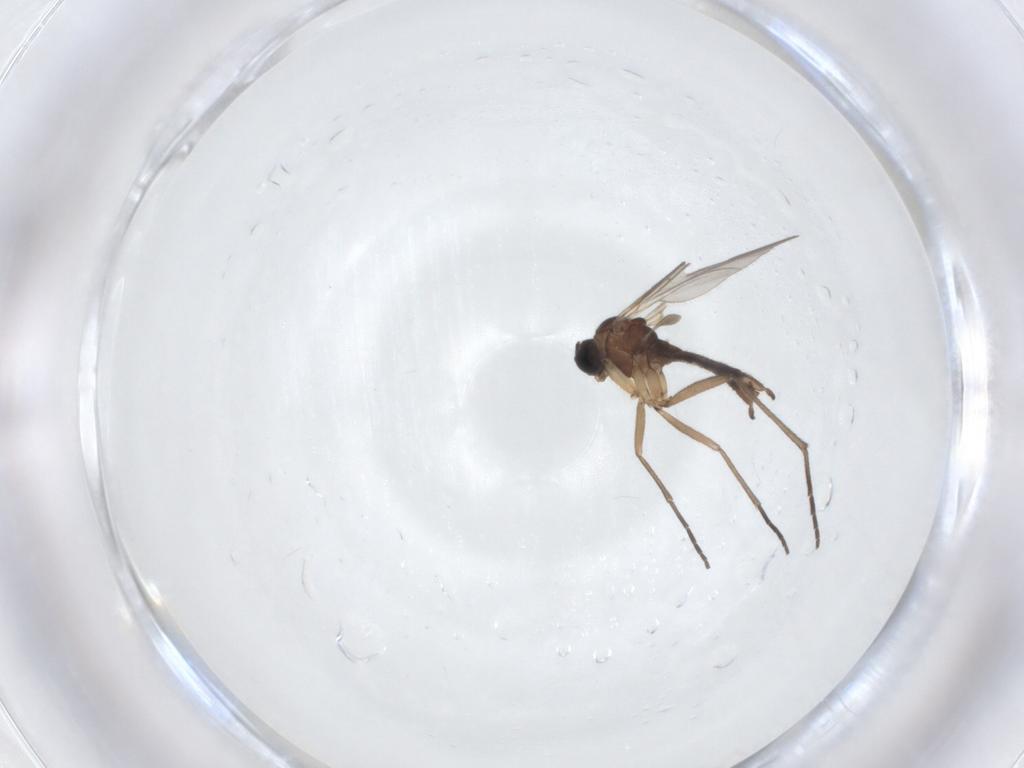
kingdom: Animalia
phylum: Arthropoda
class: Insecta
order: Diptera
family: Sciaridae
